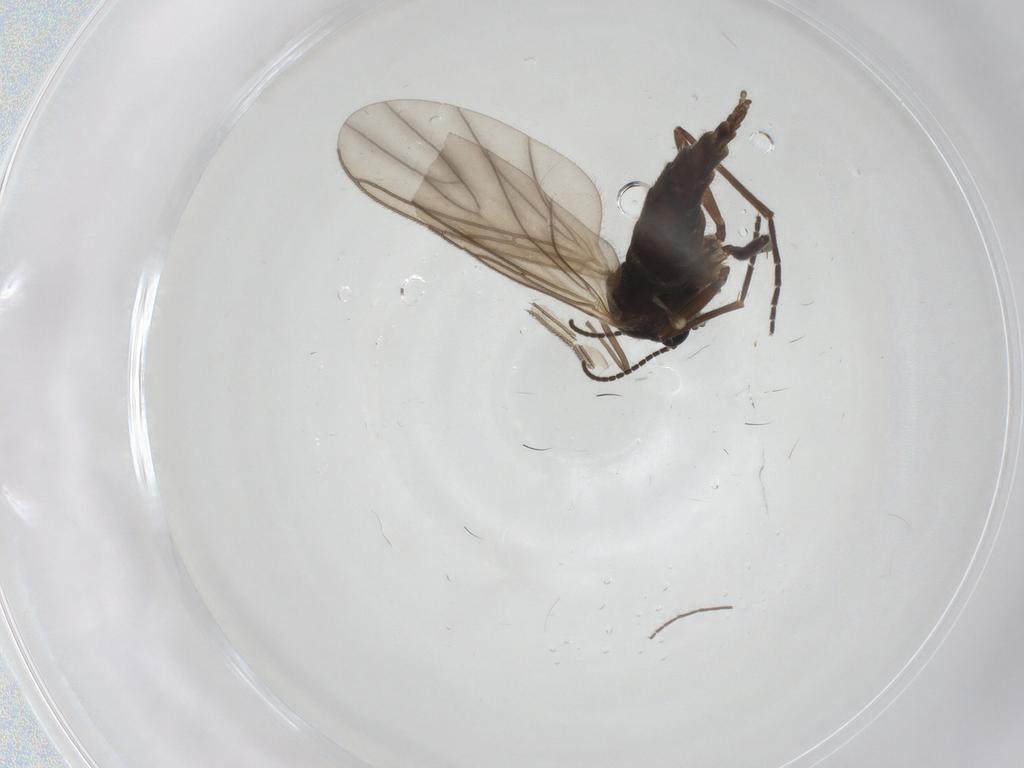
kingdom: Animalia
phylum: Arthropoda
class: Insecta
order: Diptera
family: Sciaridae
